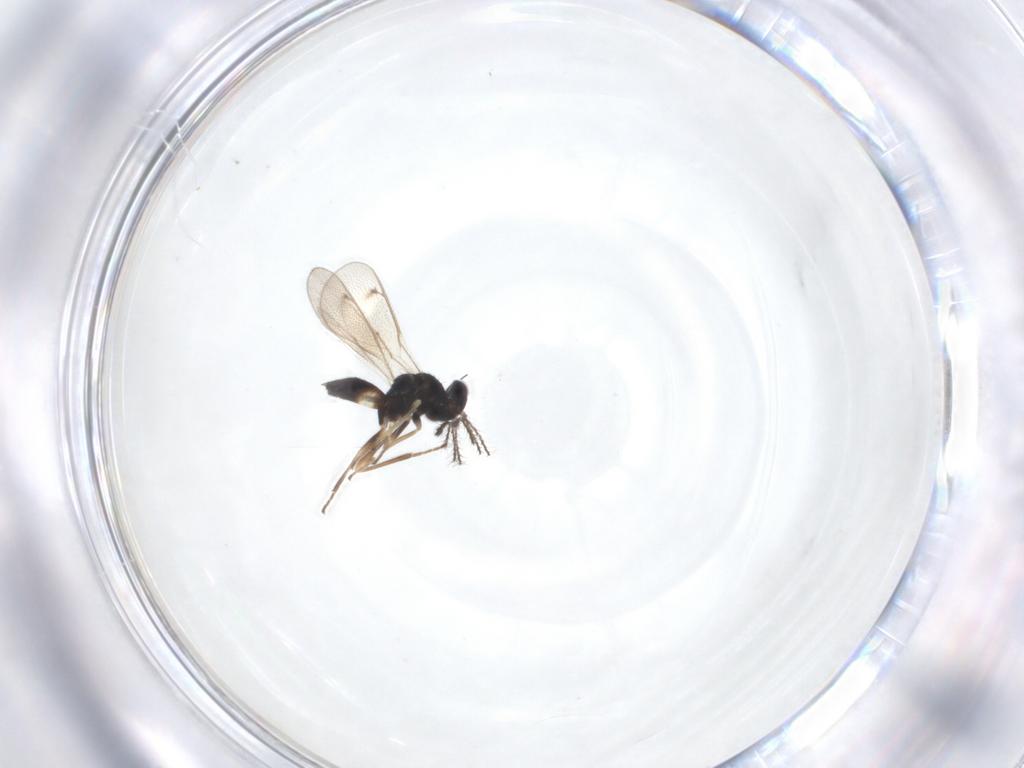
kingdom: Animalia
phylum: Arthropoda
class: Insecta
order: Hymenoptera
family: Eulophidae
